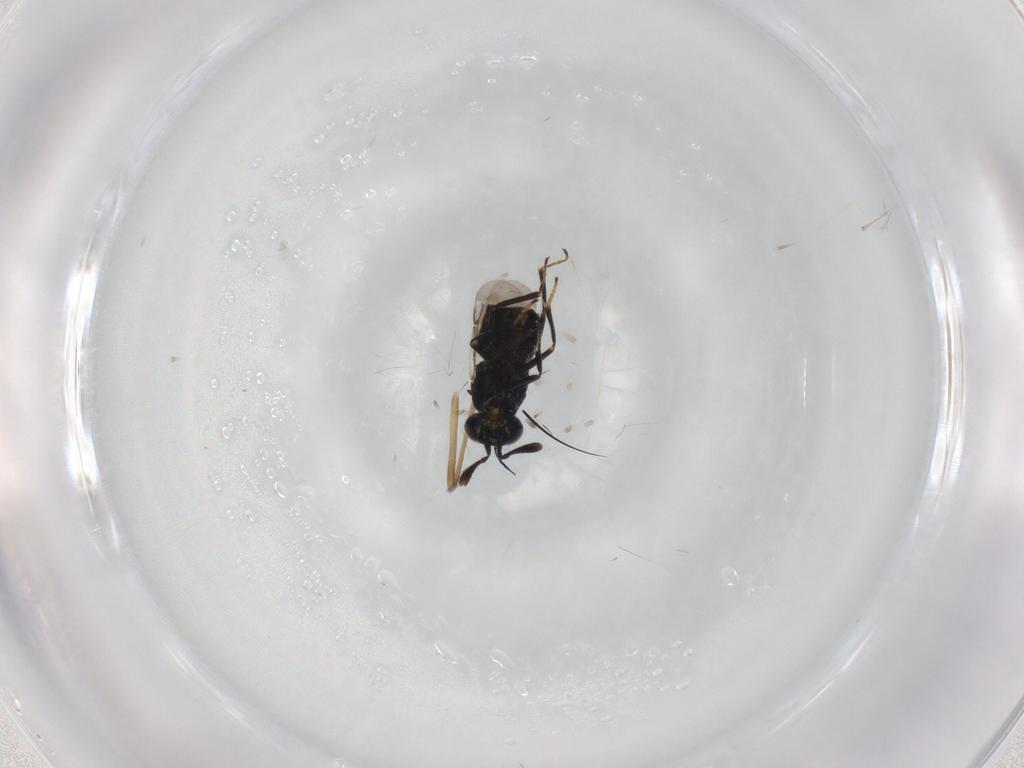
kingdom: Animalia
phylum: Arthropoda
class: Insecta
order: Hymenoptera
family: Encyrtidae
